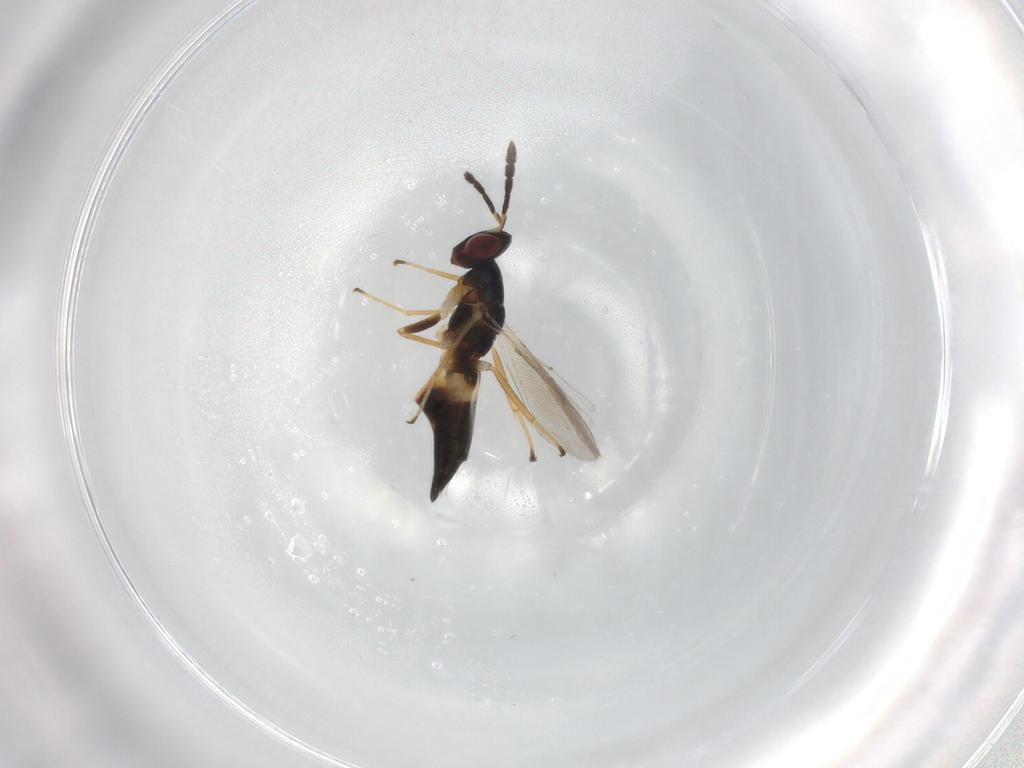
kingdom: Animalia
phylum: Arthropoda
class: Insecta
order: Hymenoptera
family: Eulophidae
